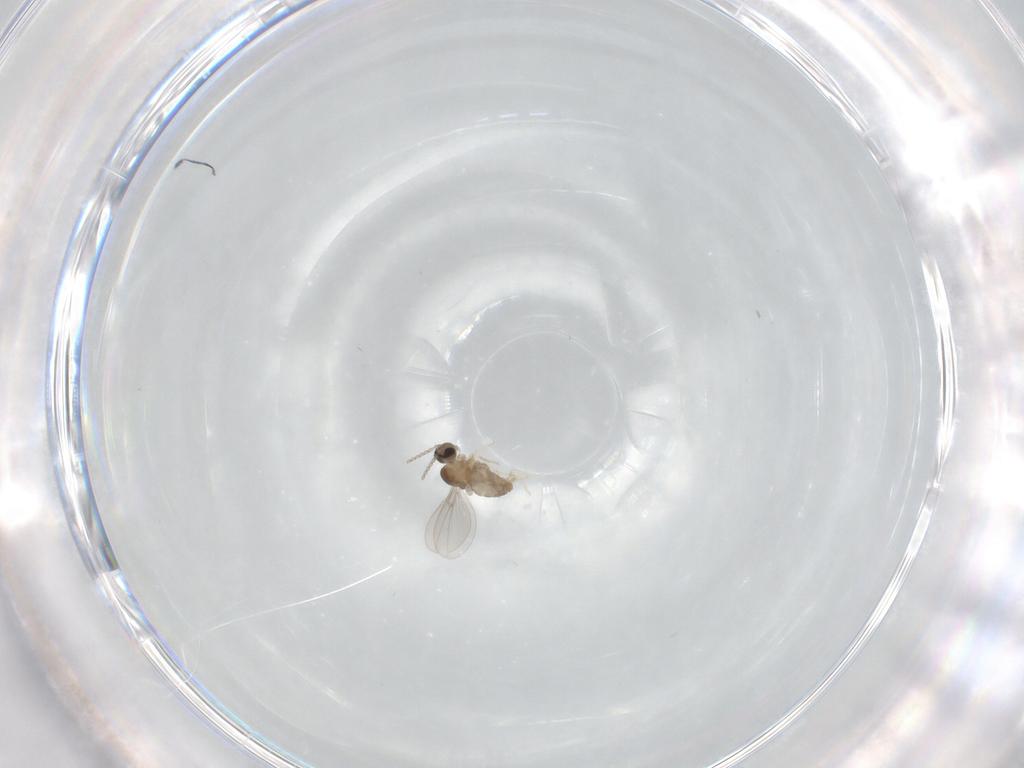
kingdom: Animalia
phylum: Arthropoda
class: Insecta
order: Diptera
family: Cecidomyiidae
